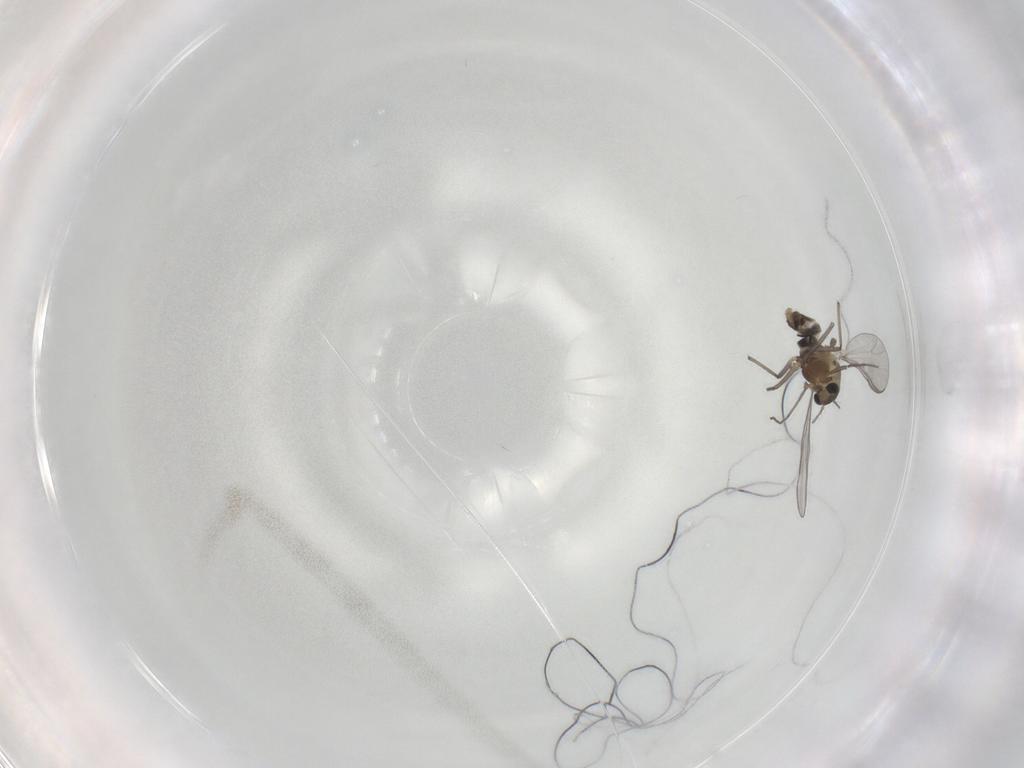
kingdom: Animalia
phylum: Arthropoda
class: Insecta
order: Diptera
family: Chironomidae
